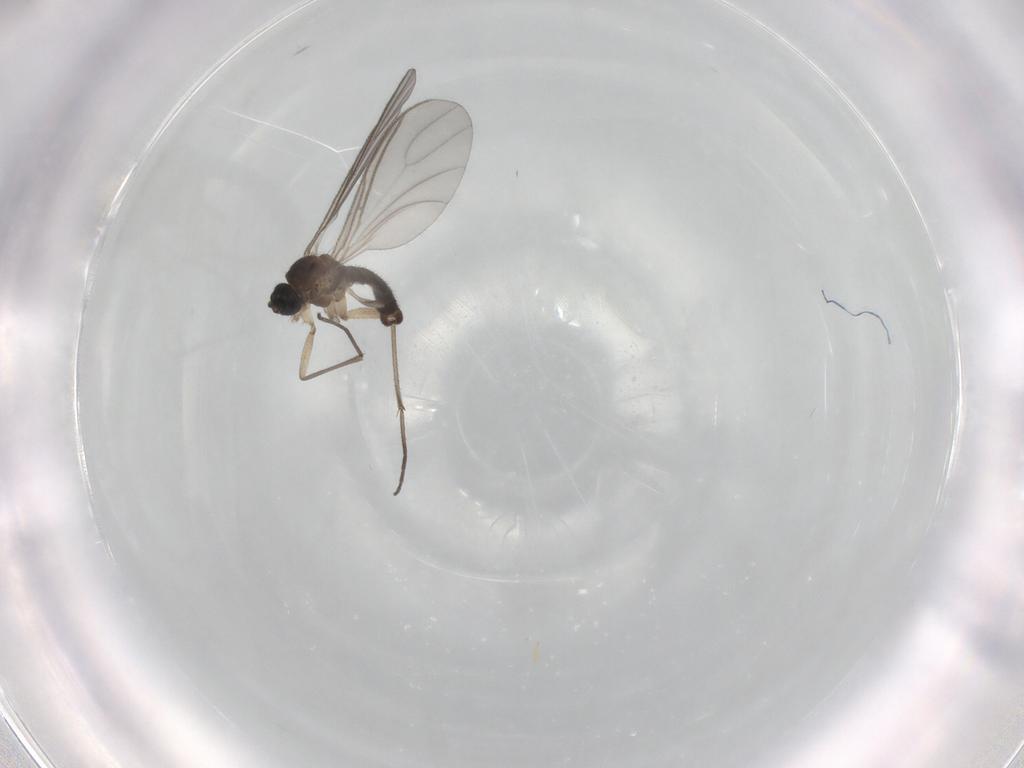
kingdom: Animalia
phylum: Arthropoda
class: Insecta
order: Diptera
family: Sciaridae
